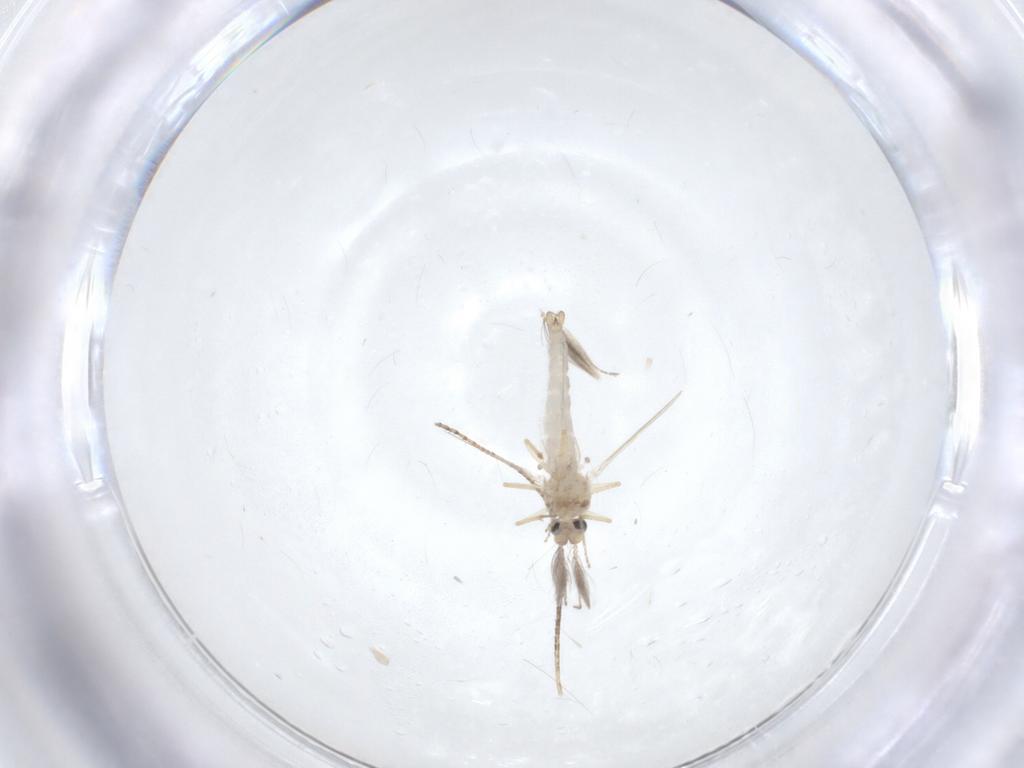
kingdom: Animalia
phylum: Arthropoda
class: Insecta
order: Diptera
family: Ceratopogonidae
